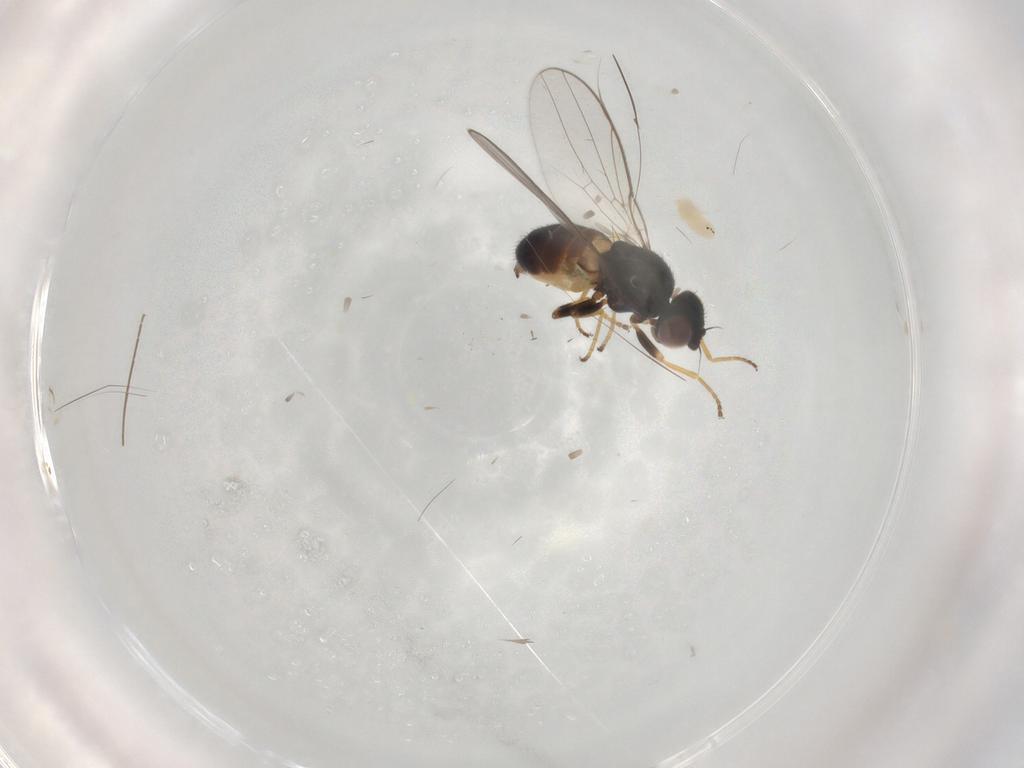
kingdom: Animalia
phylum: Arthropoda
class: Insecta
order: Diptera
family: Chloropidae
